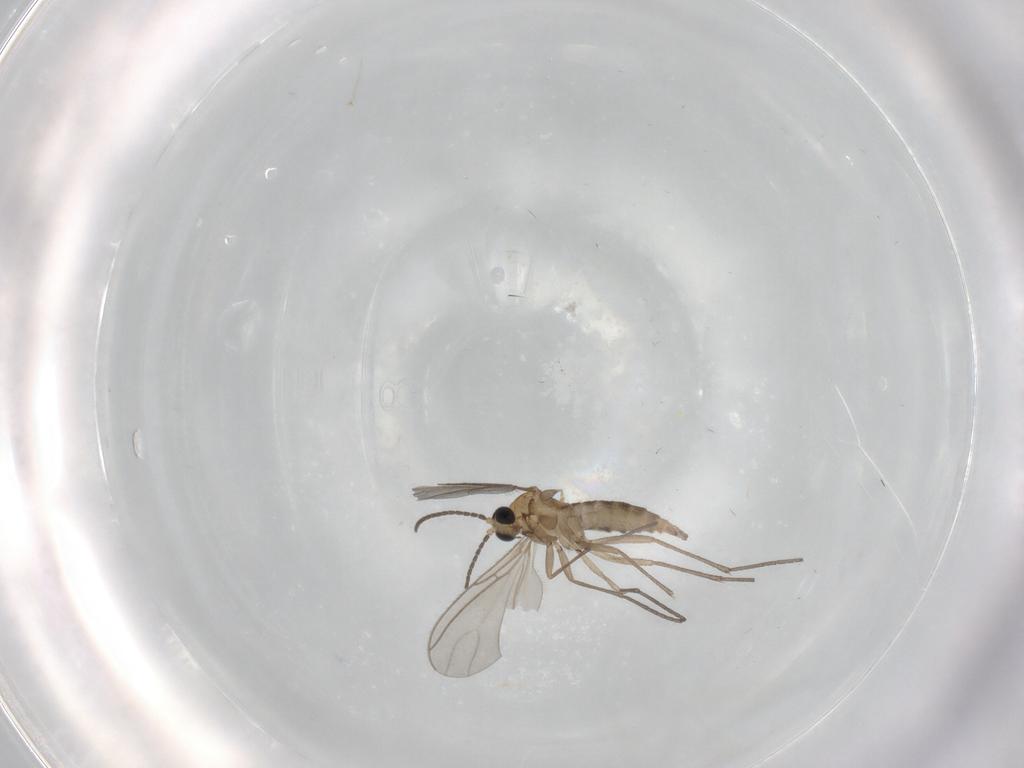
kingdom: Animalia
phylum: Arthropoda
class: Insecta
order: Diptera
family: Sciaridae
